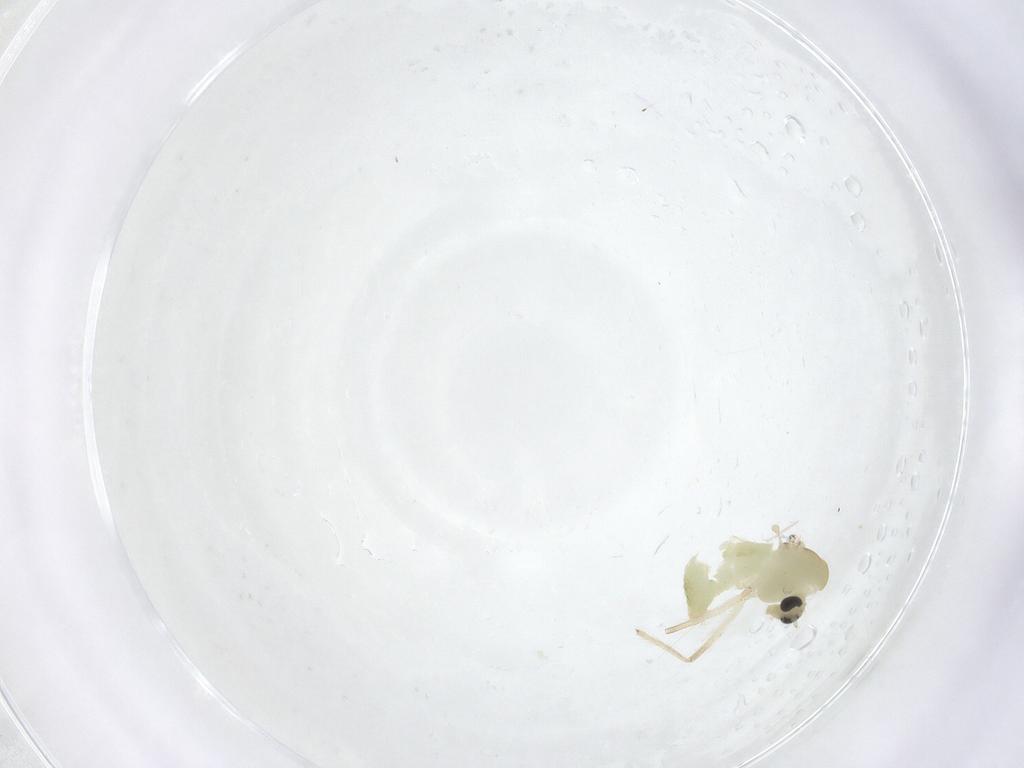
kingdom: Animalia
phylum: Arthropoda
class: Insecta
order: Diptera
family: Chironomidae
